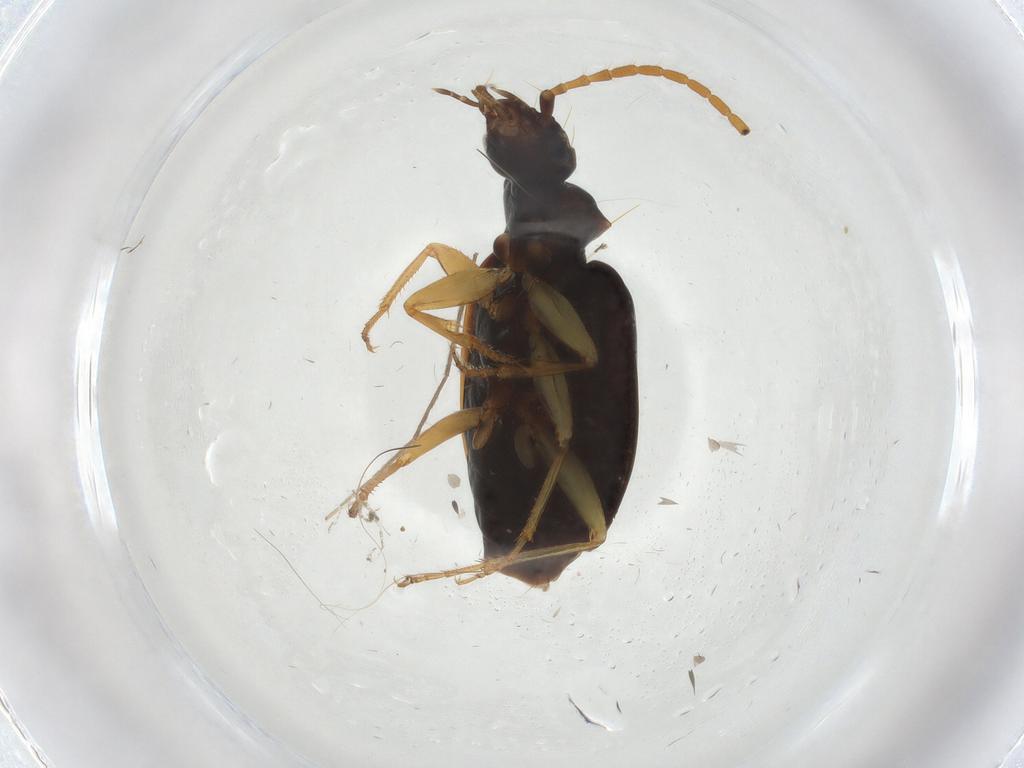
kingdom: Animalia
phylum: Arthropoda
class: Insecta
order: Coleoptera
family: Carabidae
